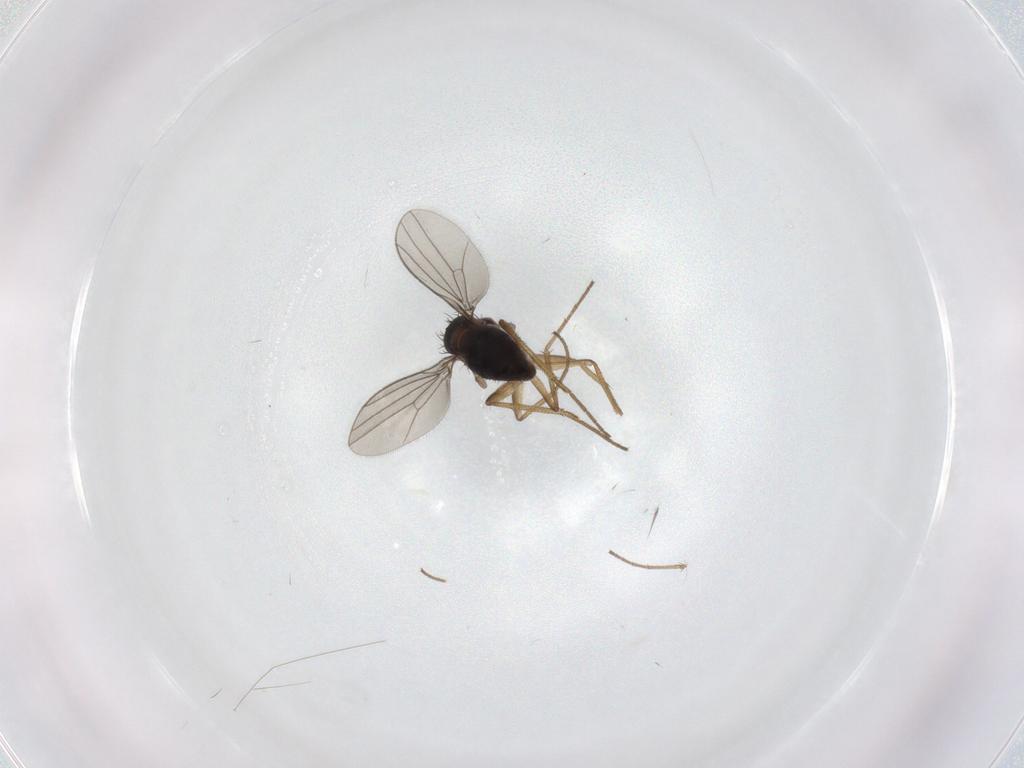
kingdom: Animalia
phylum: Arthropoda
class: Insecta
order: Diptera
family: Dolichopodidae
